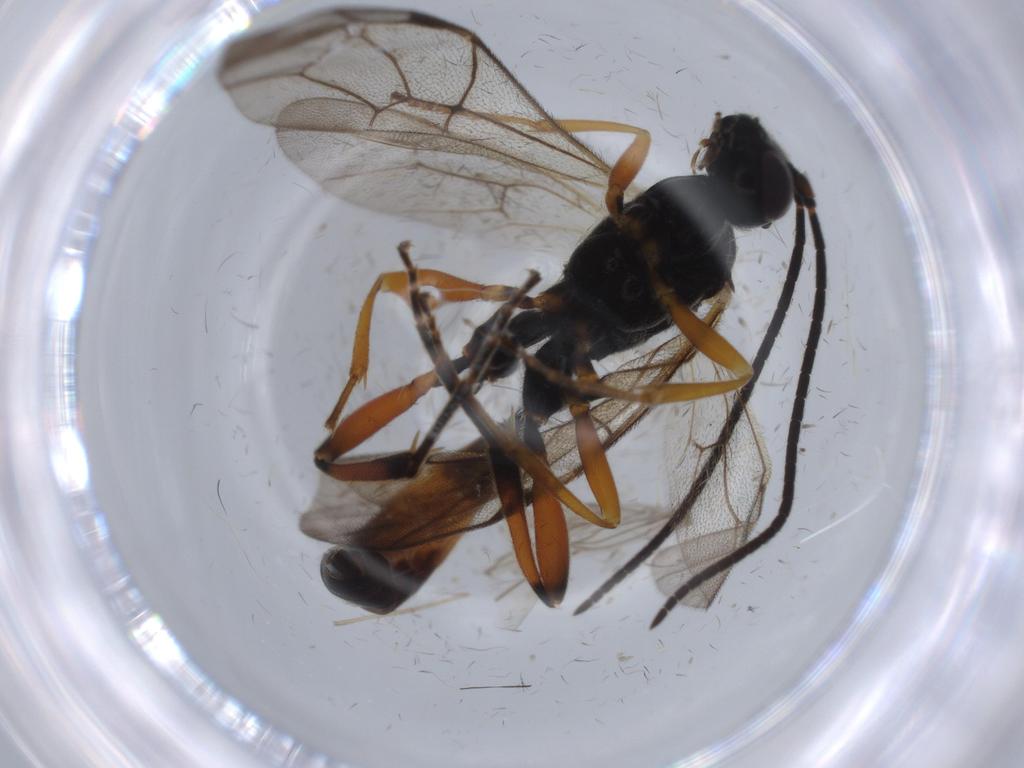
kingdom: Animalia
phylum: Arthropoda
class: Insecta
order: Hymenoptera
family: Ichneumonidae
